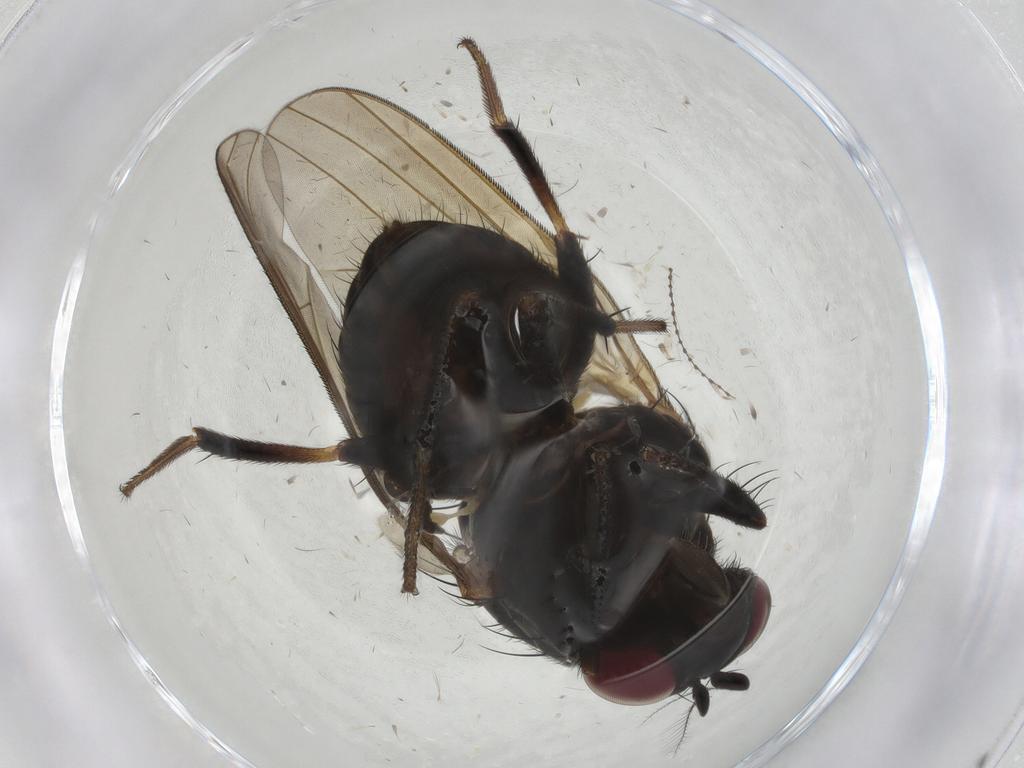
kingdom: Animalia
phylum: Arthropoda
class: Insecta
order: Diptera
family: Lauxaniidae
